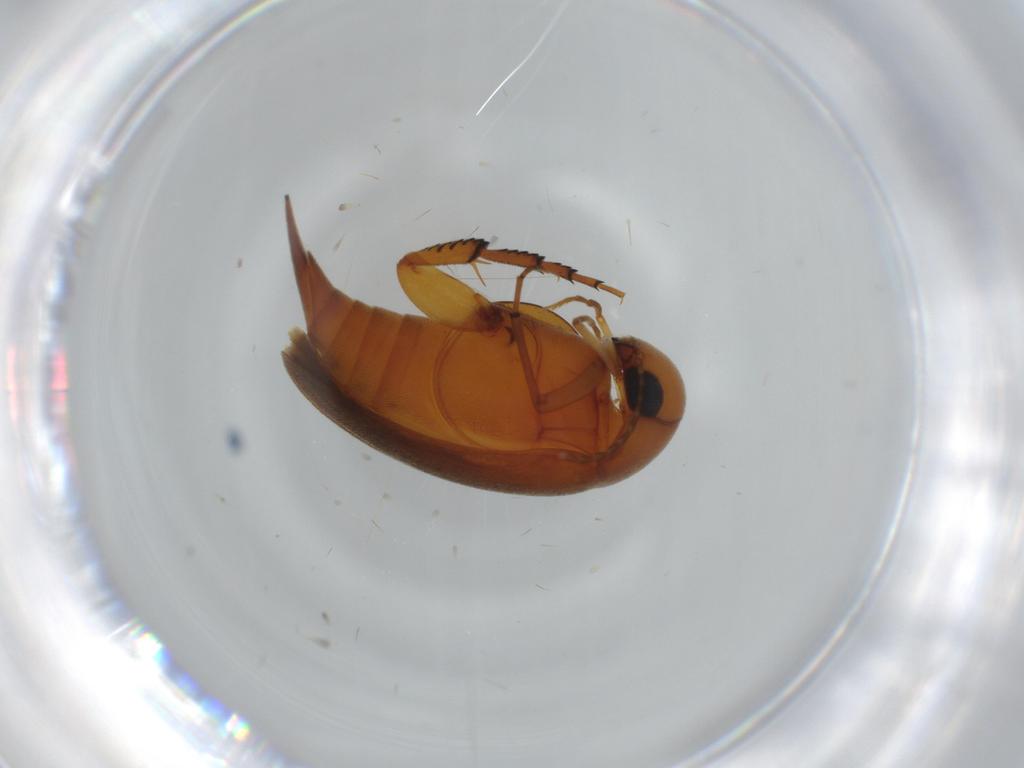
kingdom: Animalia
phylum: Arthropoda
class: Insecta
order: Coleoptera
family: Mordellidae
